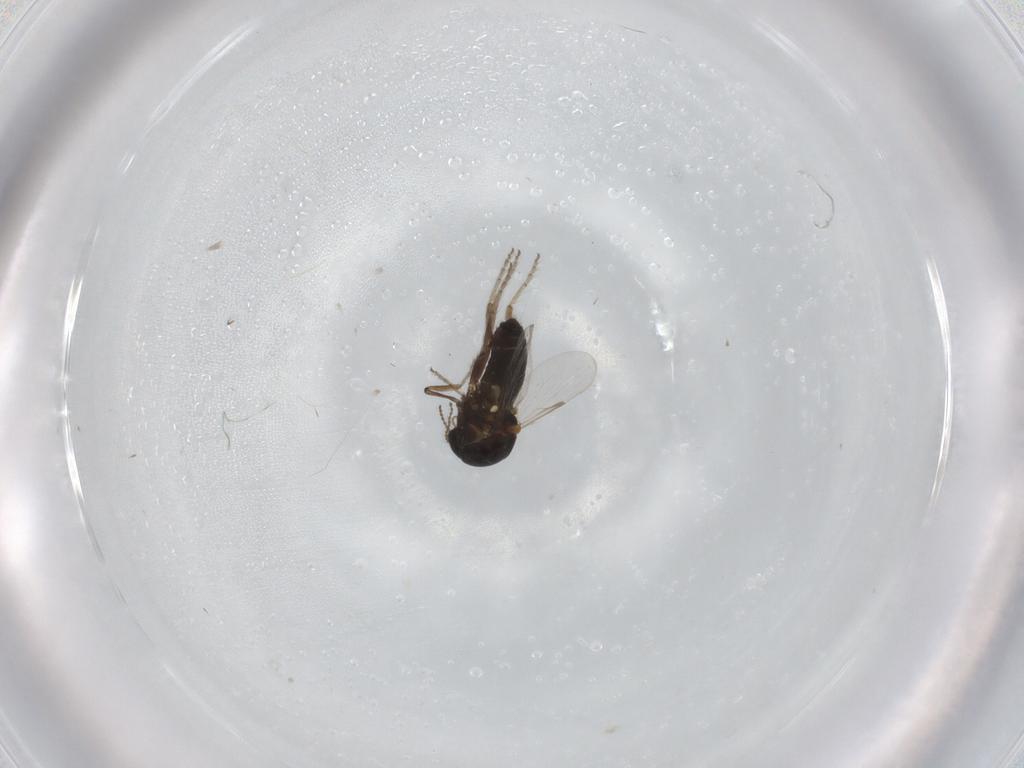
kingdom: Animalia
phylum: Arthropoda
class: Insecta
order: Diptera
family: Ceratopogonidae
